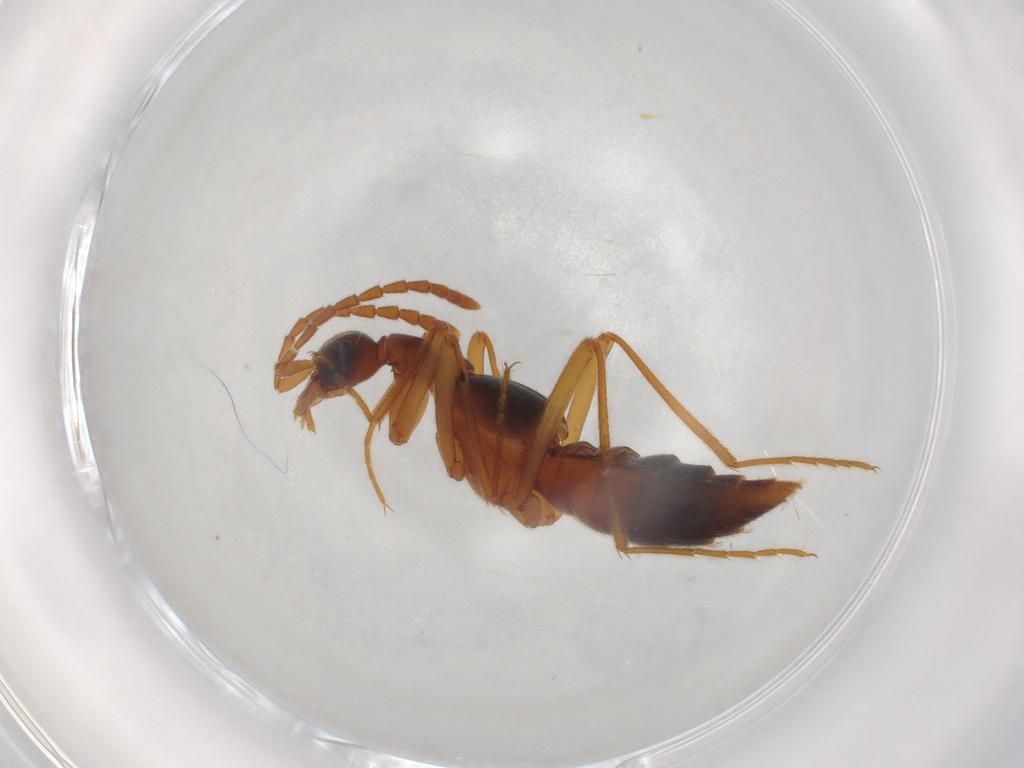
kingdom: Animalia
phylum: Arthropoda
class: Insecta
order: Coleoptera
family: Staphylinidae
